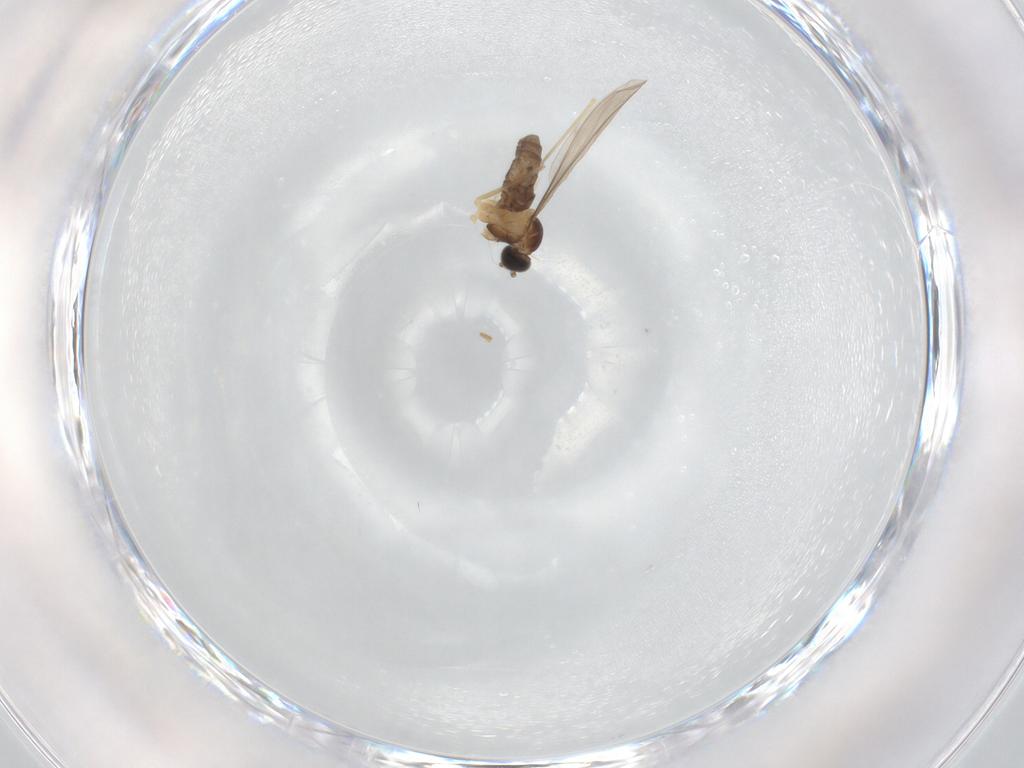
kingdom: Animalia
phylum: Arthropoda
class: Insecta
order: Diptera
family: Cecidomyiidae
